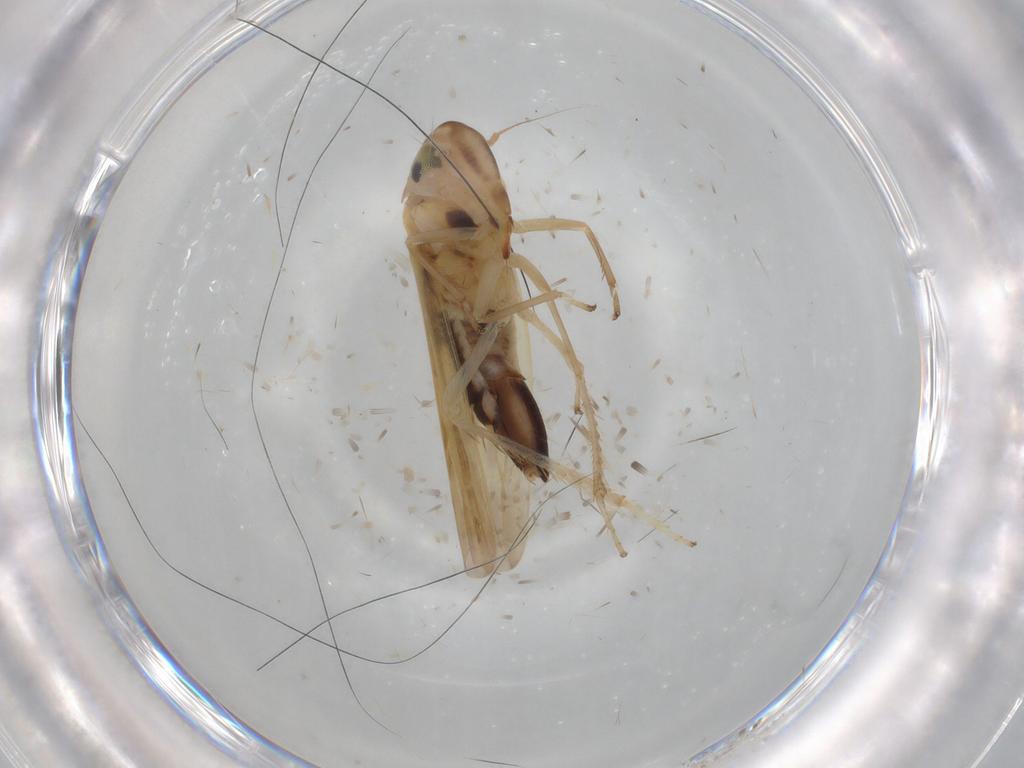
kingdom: Animalia
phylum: Arthropoda
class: Insecta
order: Hemiptera
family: Cicadellidae
